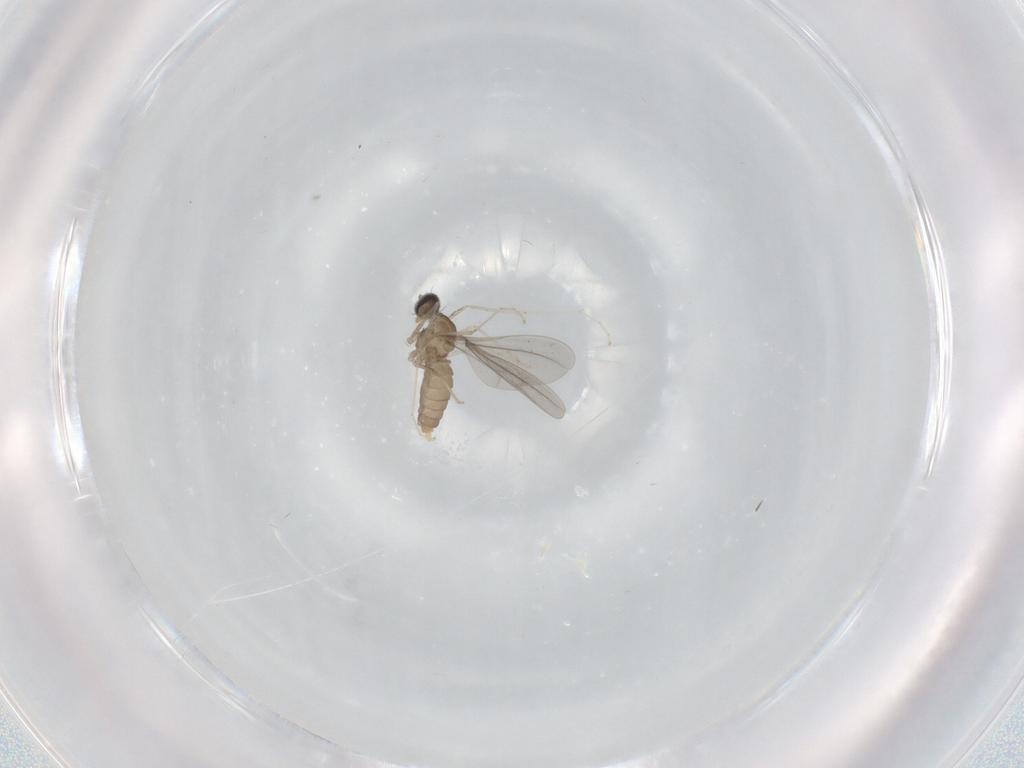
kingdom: Animalia
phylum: Arthropoda
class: Insecta
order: Diptera
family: Cecidomyiidae
